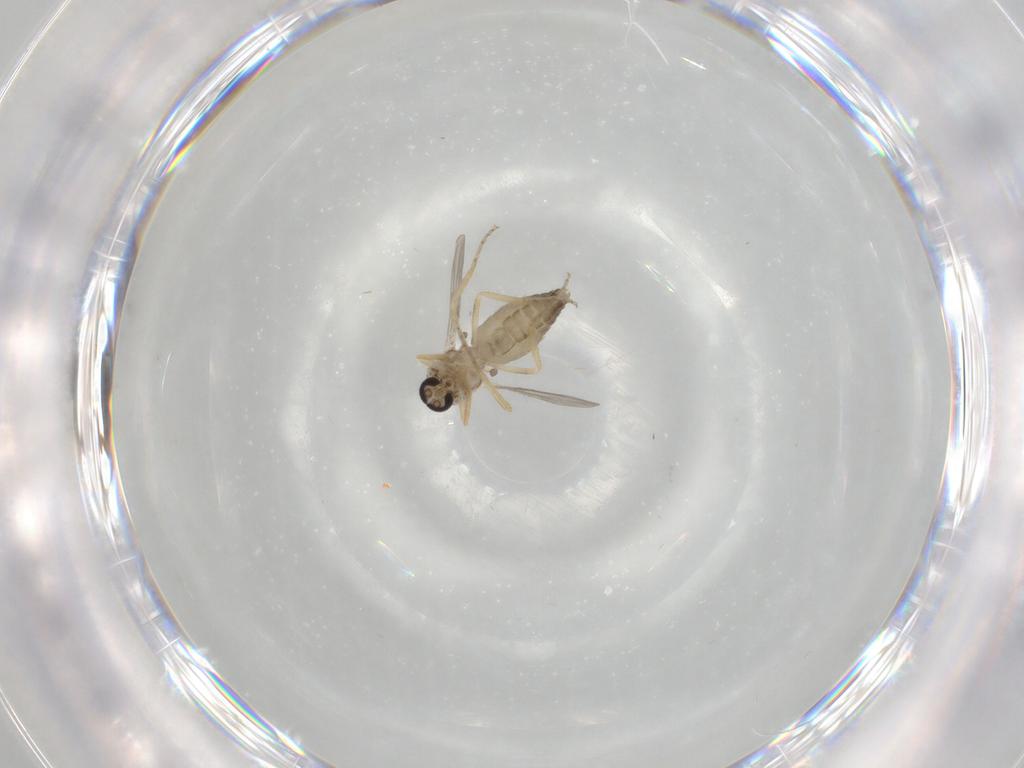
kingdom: Animalia
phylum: Arthropoda
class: Insecta
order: Diptera
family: Ceratopogonidae
